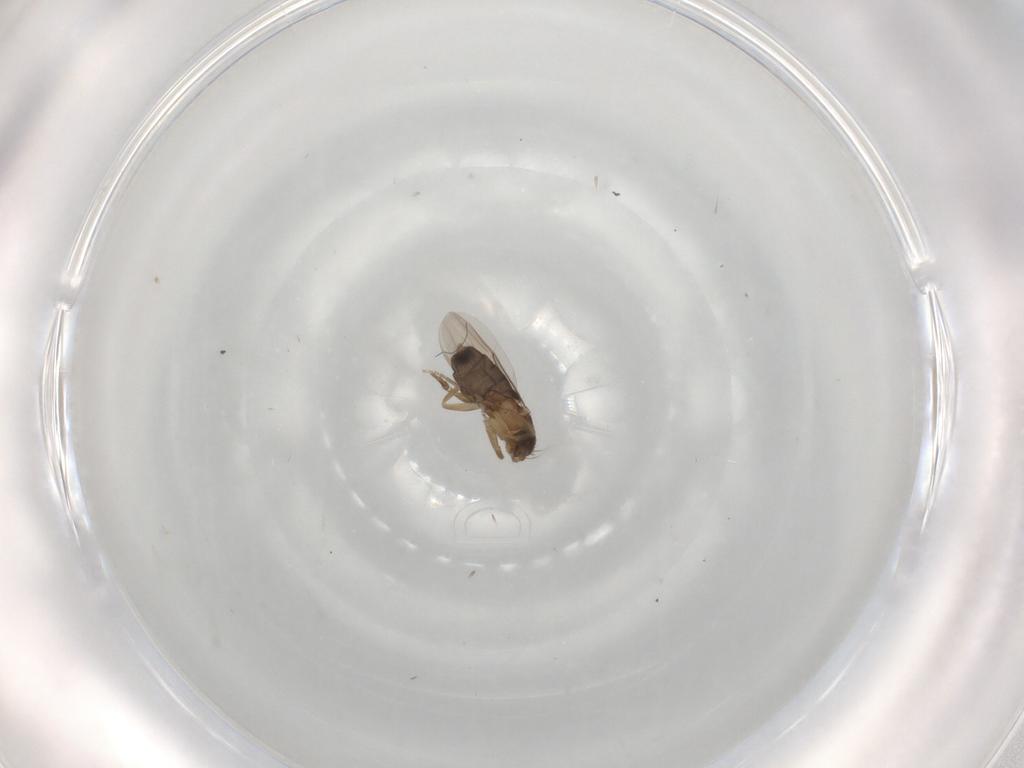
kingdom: Animalia
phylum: Arthropoda
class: Insecta
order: Diptera
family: Phoridae
